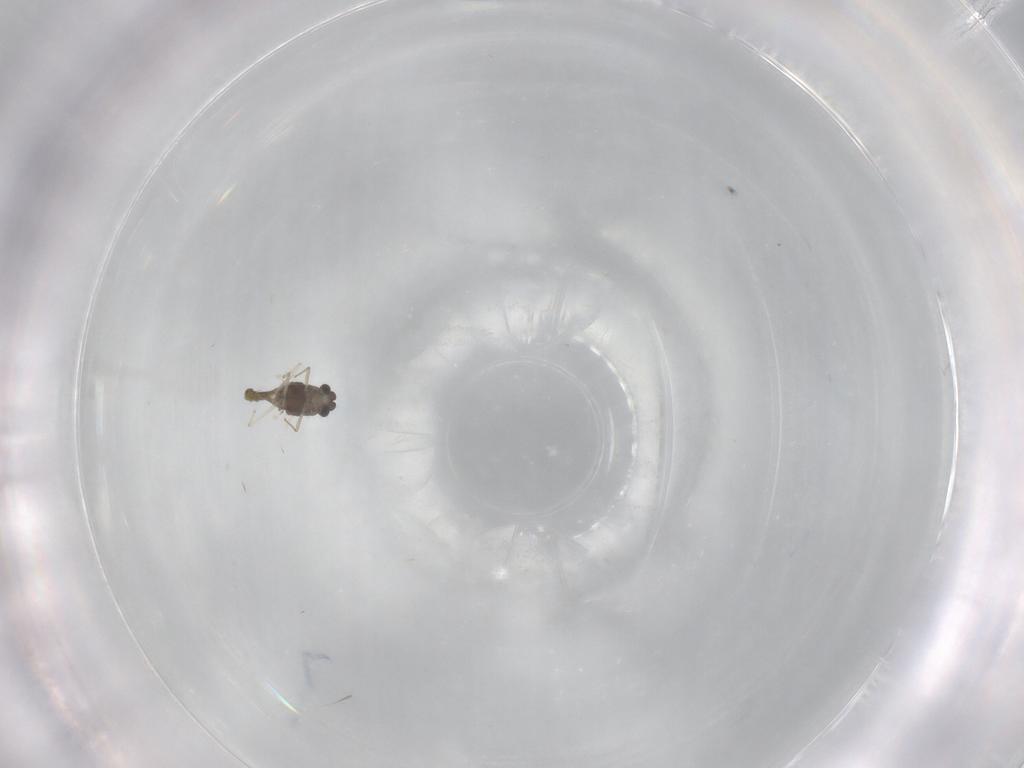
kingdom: Animalia
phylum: Arthropoda
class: Insecta
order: Diptera
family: Chironomidae
